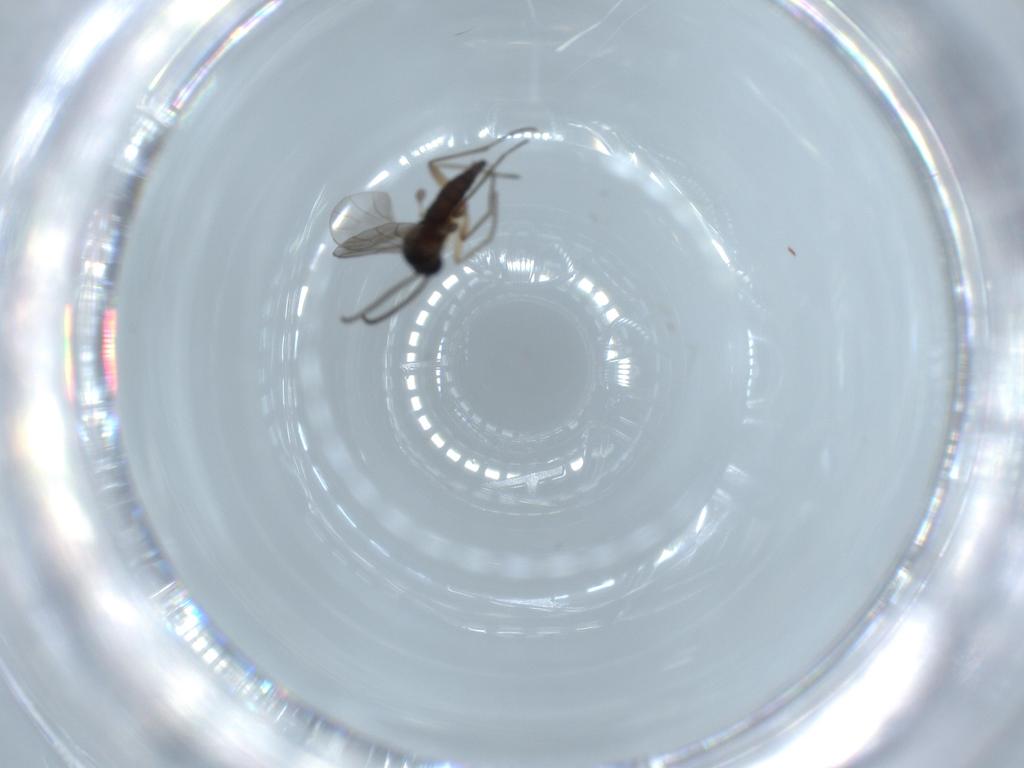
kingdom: Animalia
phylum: Arthropoda
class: Insecta
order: Diptera
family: Sciaridae
